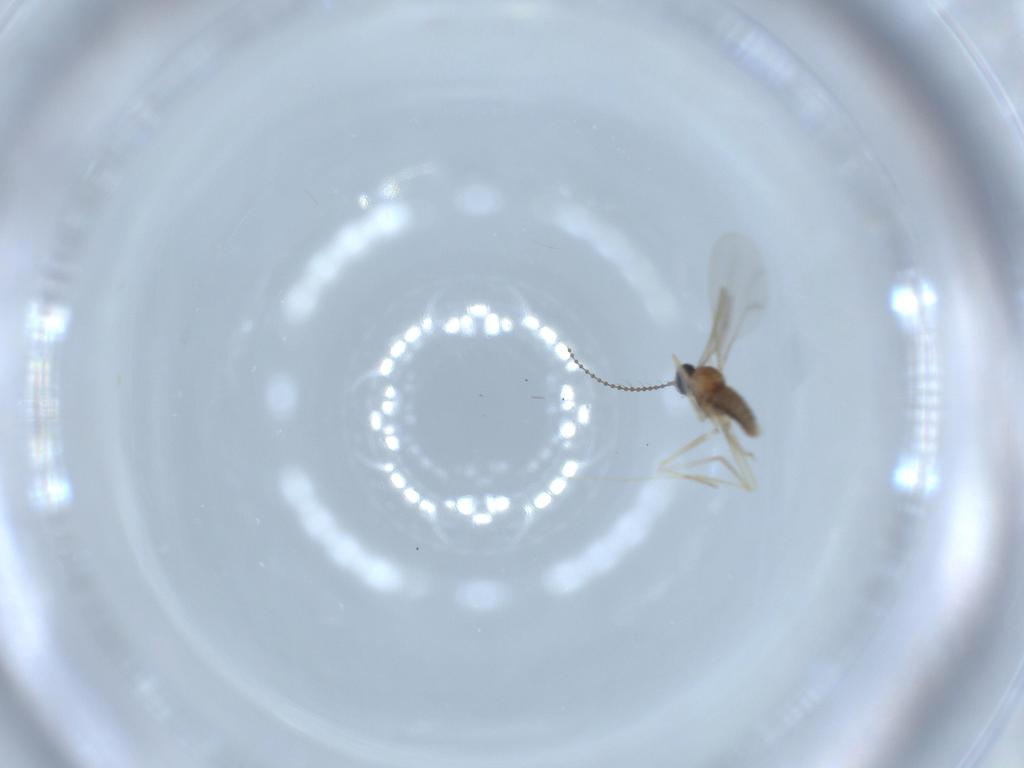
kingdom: Animalia
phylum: Arthropoda
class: Insecta
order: Diptera
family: Cecidomyiidae
